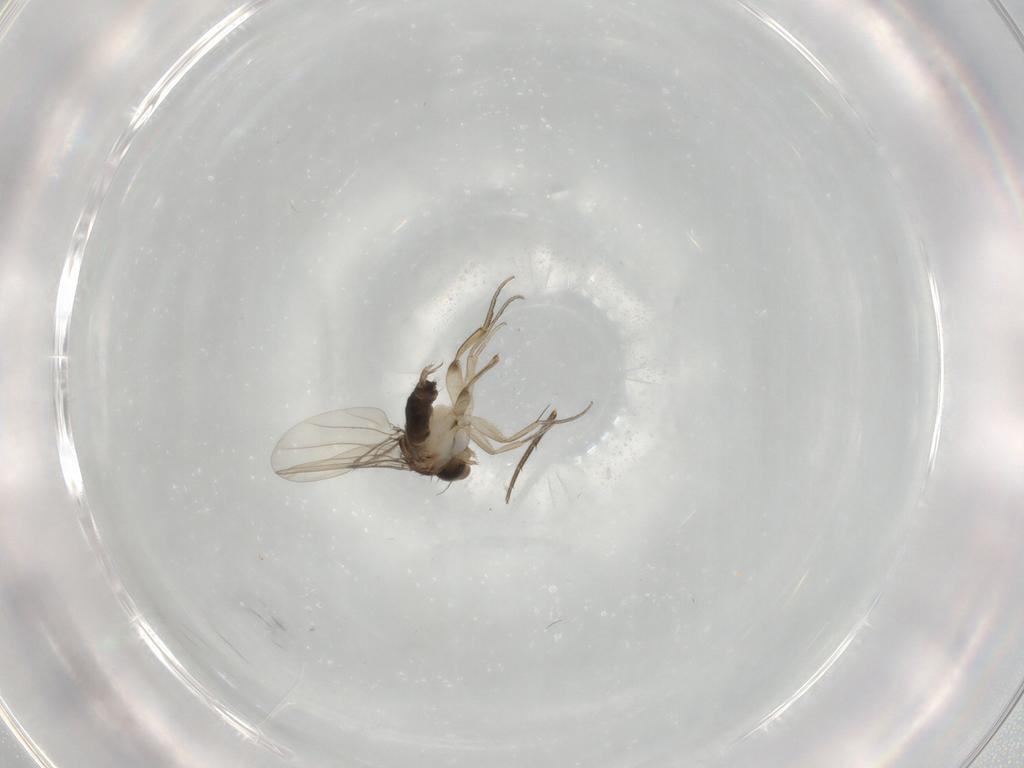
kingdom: Animalia
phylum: Arthropoda
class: Insecta
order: Diptera
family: Phoridae
